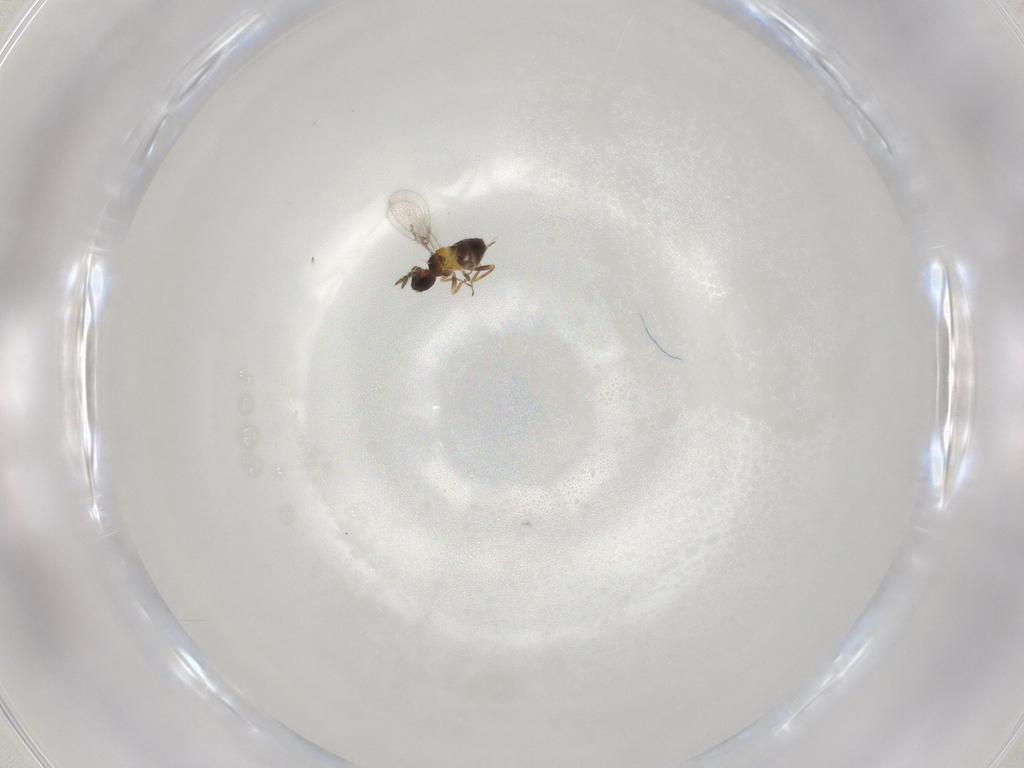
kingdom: Animalia
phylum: Arthropoda
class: Insecta
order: Hymenoptera
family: Trichogrammatidae
